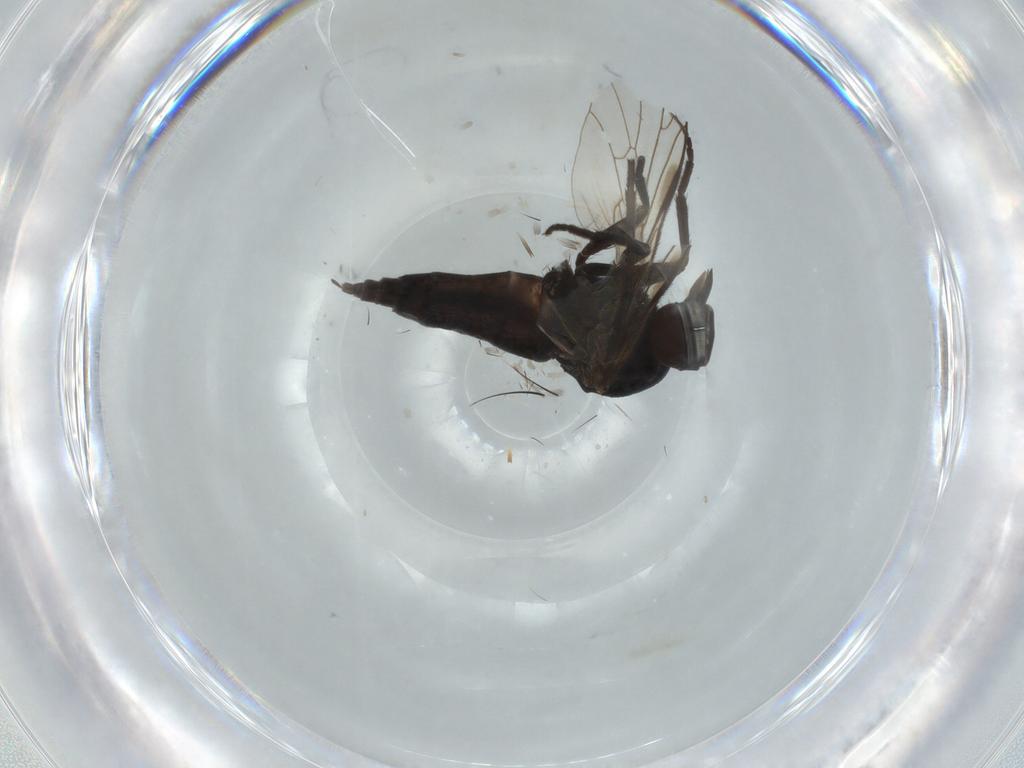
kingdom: Animalia
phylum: Arthropoda
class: Insecta
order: Diptera
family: Empididae
